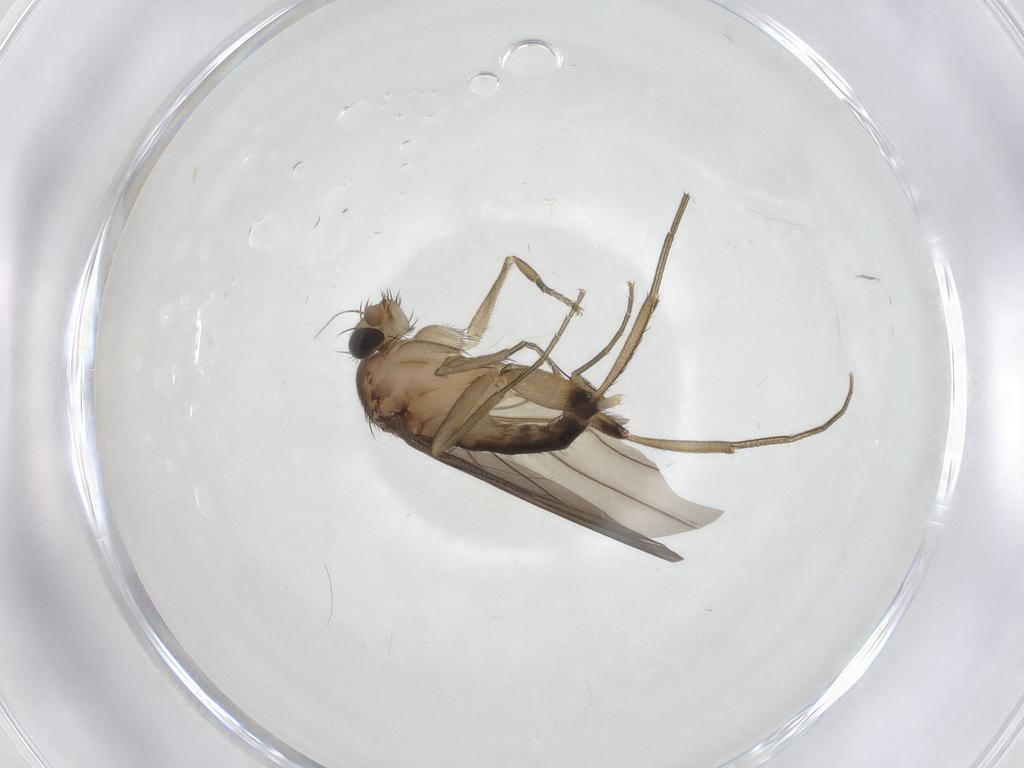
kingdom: Animalia
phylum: Arthropoda
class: Insecta
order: Diptera
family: Phoridae
